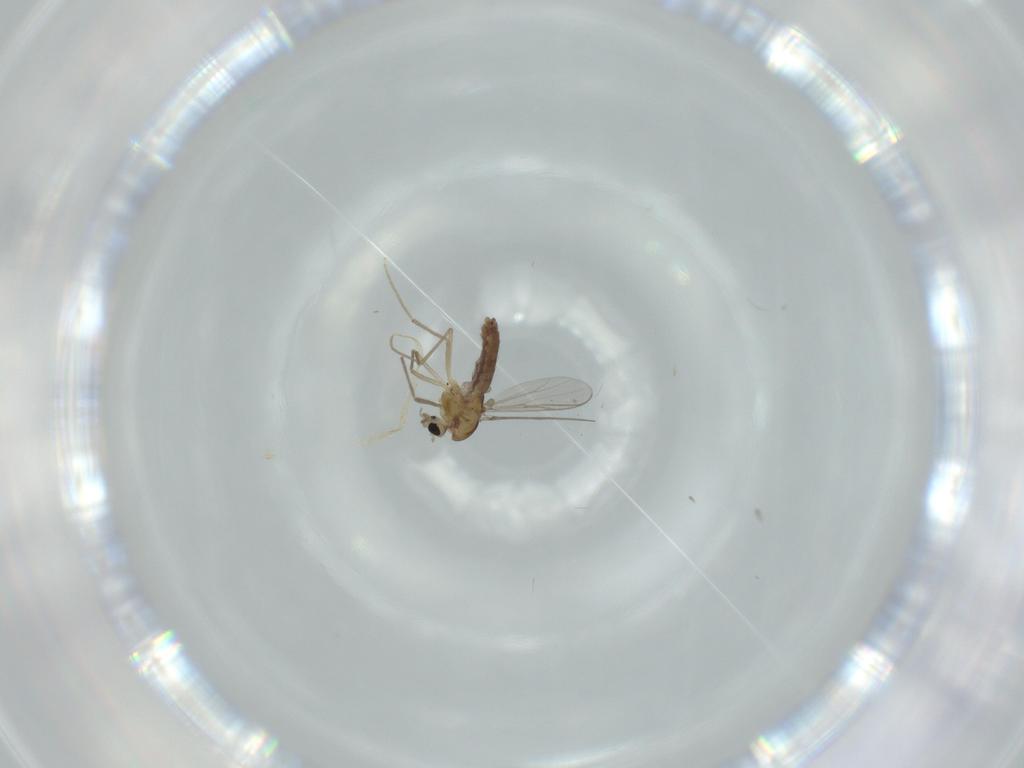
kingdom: Animalia
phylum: Arthropoda
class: Insecta
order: Diptera
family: Chironomidae
